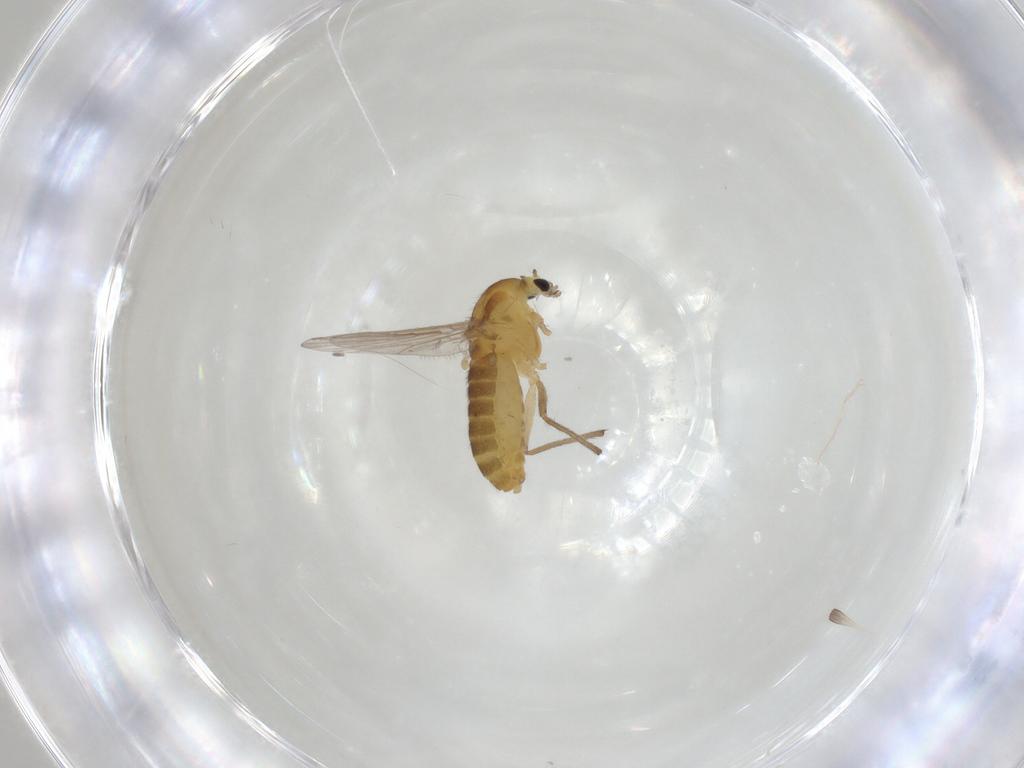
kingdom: Animalia
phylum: Arthropoda
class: Insecta
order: Diptera
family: Chironomidae
